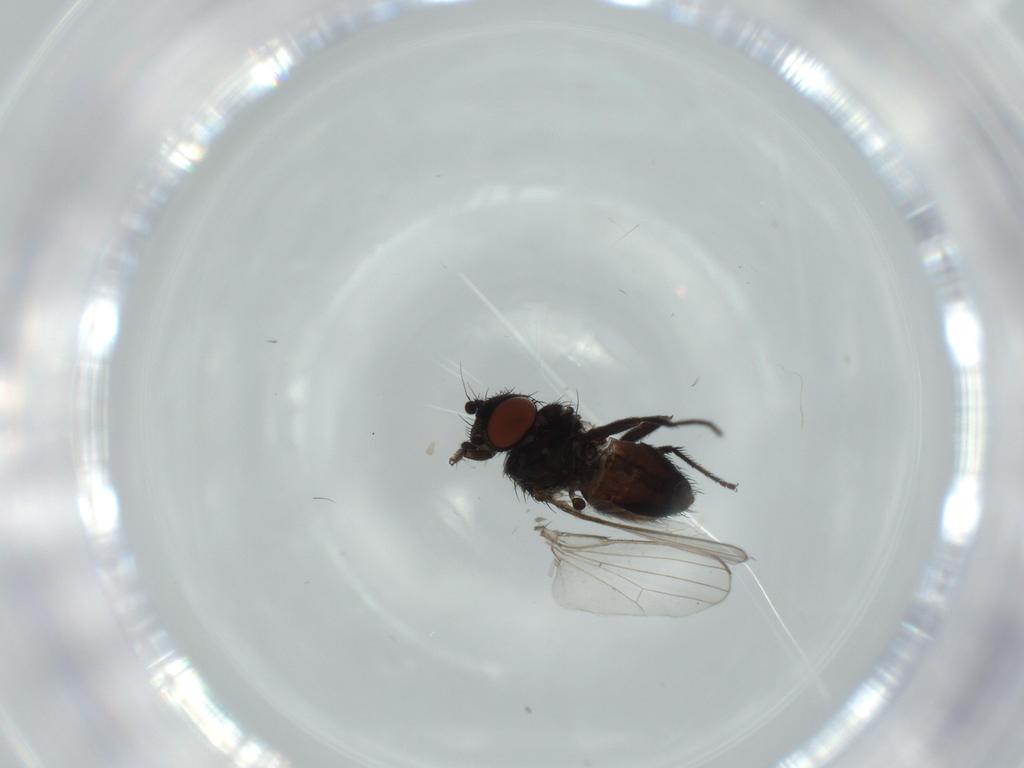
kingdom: Animalia
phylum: Arthropoda
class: Insecta
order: Diptera
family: Milichiidae
